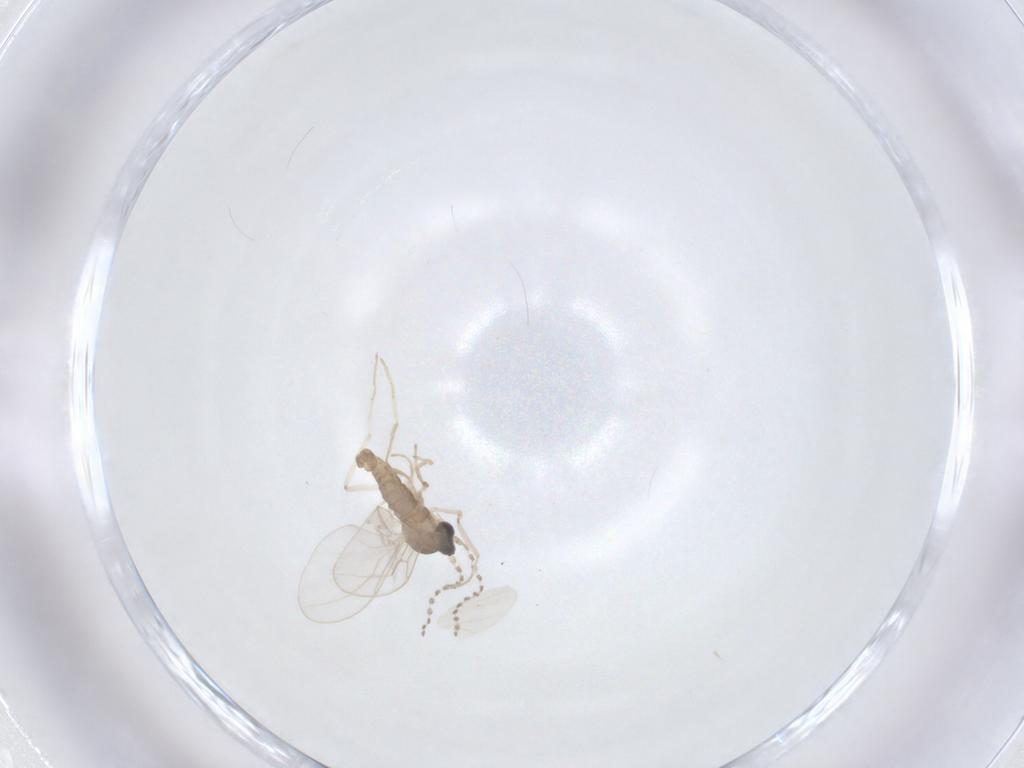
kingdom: Animalia
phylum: Arthropoda
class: Insecta
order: Diptera
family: Cecidomyiidae
